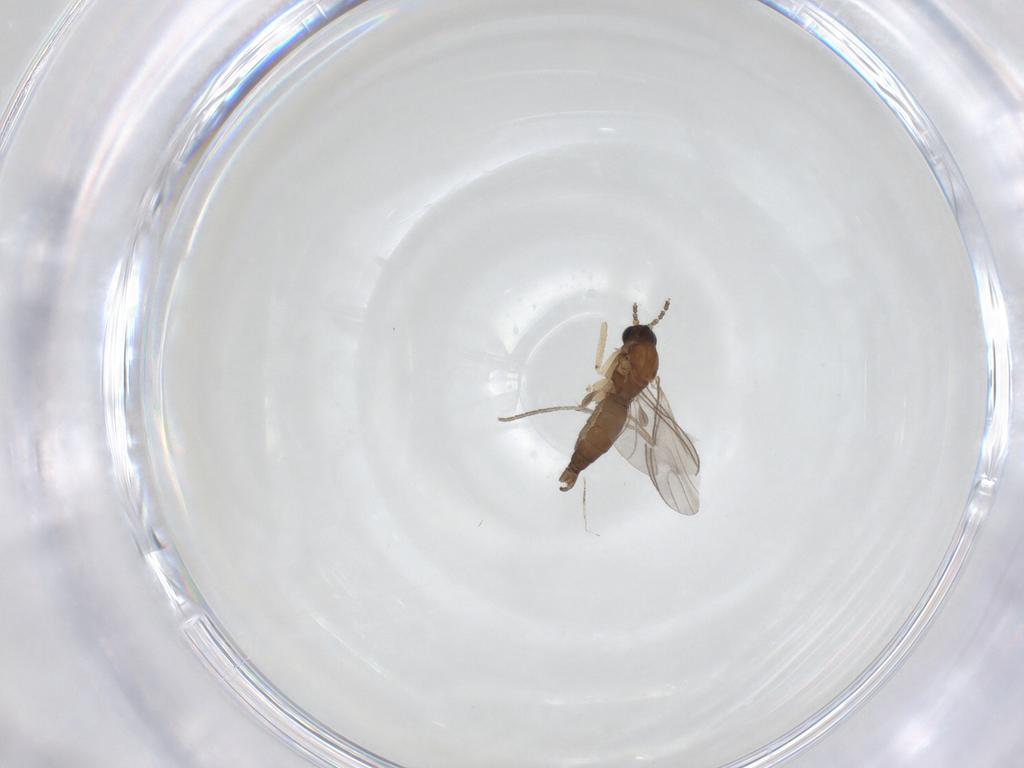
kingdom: Animalia
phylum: Arthropoda
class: Insecta
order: Diptera
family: Sciaridae
